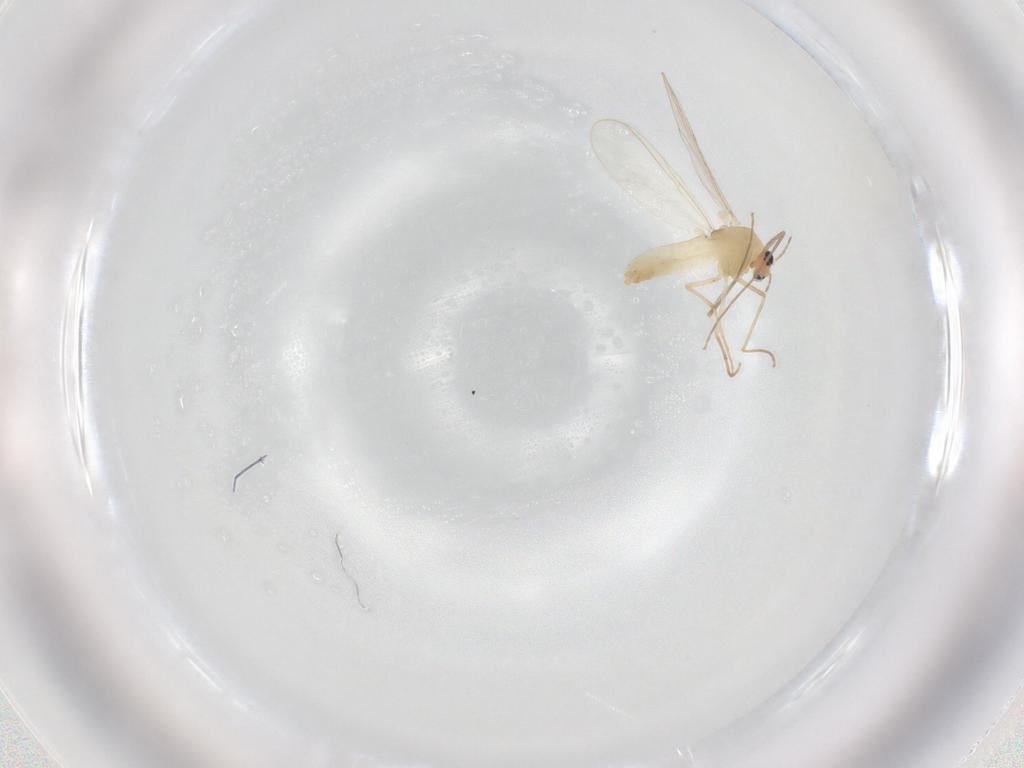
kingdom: Animalia
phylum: Arthropoda
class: Insecta
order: Diptera
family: Chironomidae
